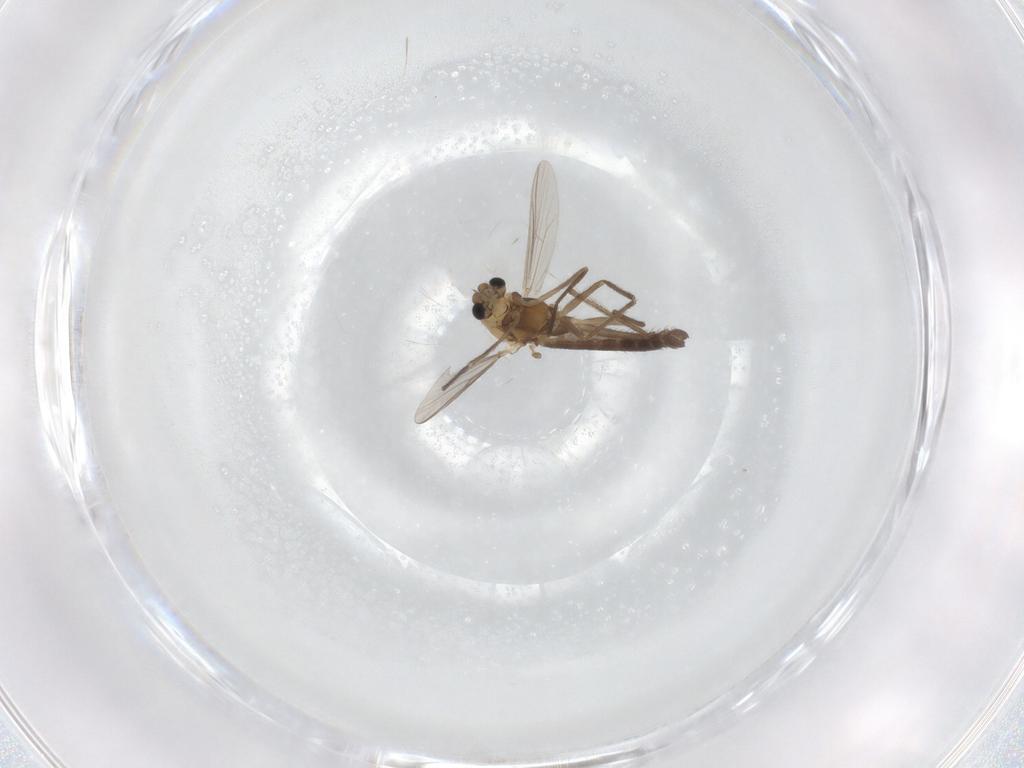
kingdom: Animalia
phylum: Arthropoda
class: Insecta
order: Diptera
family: Chironomidae
